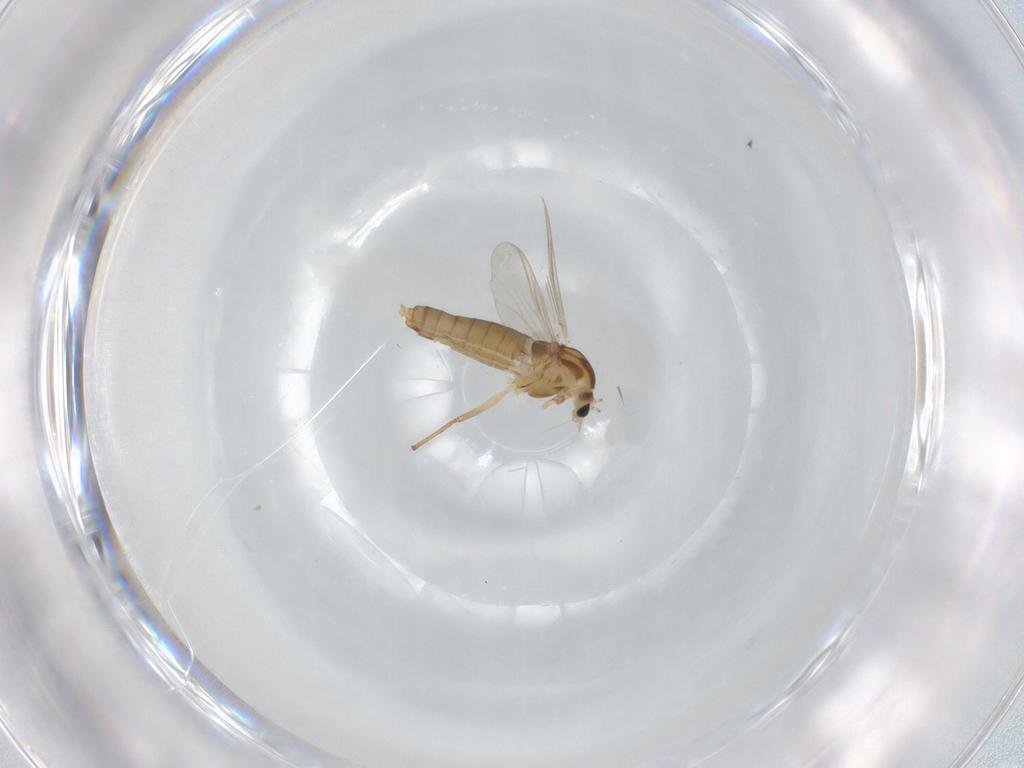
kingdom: Animalia
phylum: Arthropoda
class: Insecta
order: Diptera
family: Chironomidae
